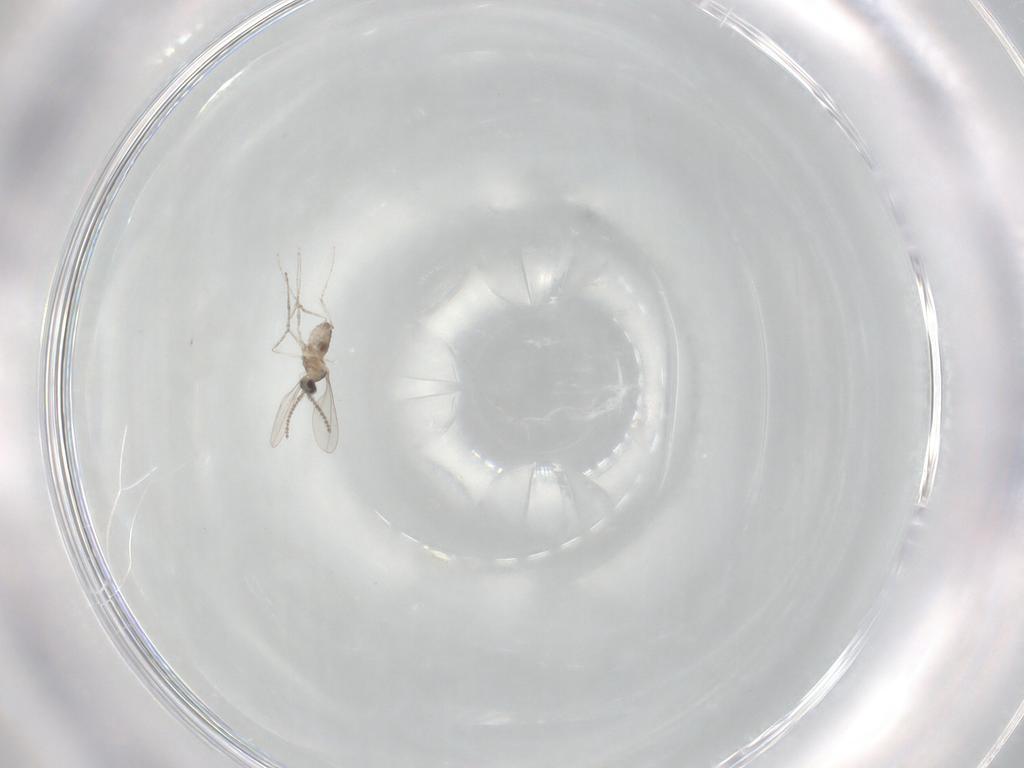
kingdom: Animalia
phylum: Arthropoda
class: Insecta
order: Diptera
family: Cecidomyiidae
